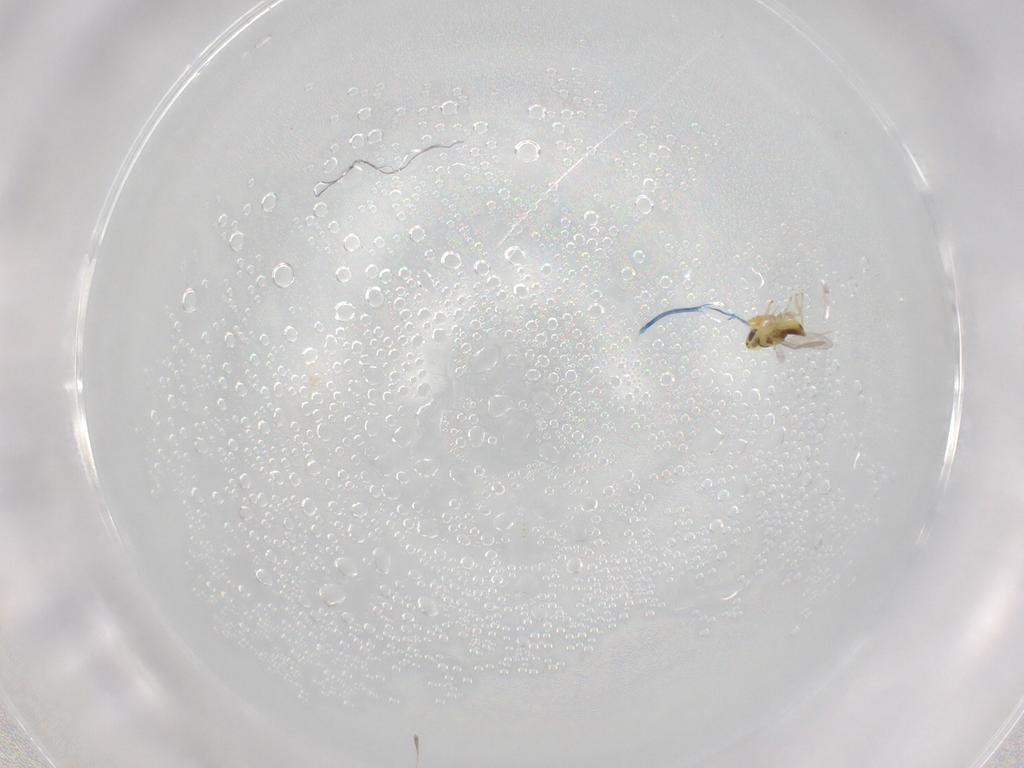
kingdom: Animalia
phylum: Arthropoda
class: Insecta
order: Hymenoptera
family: Aphelinidae
